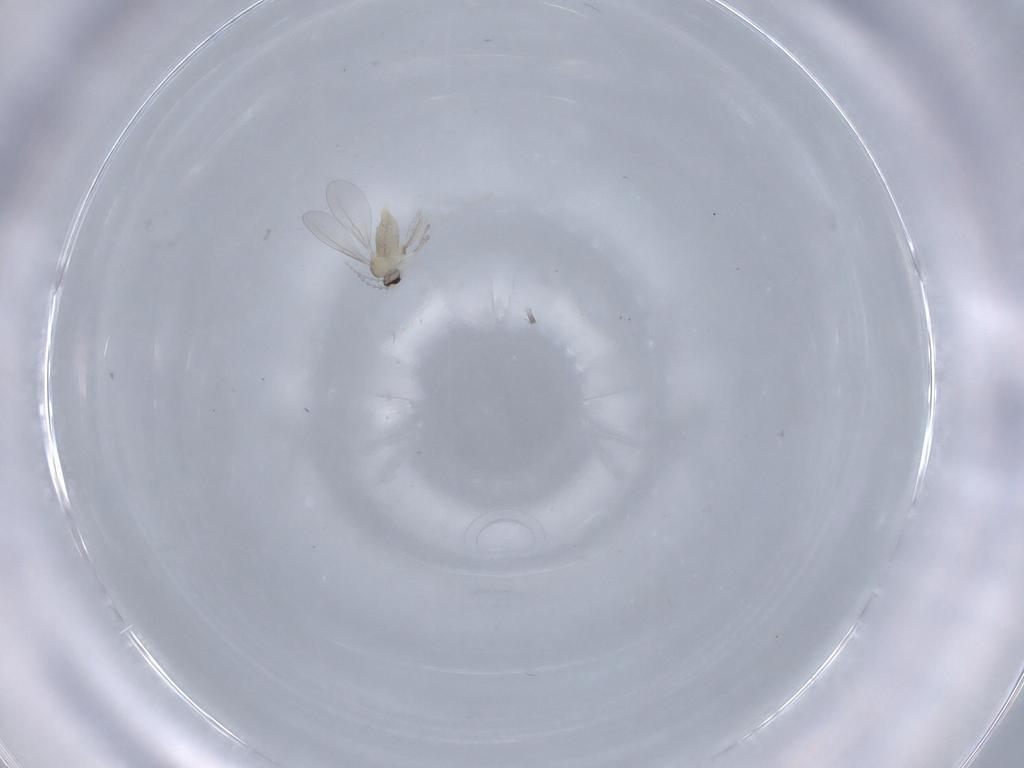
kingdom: Animalia
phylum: Arthropoda
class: Insecta
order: Diptera
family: Cecidomyiidae
